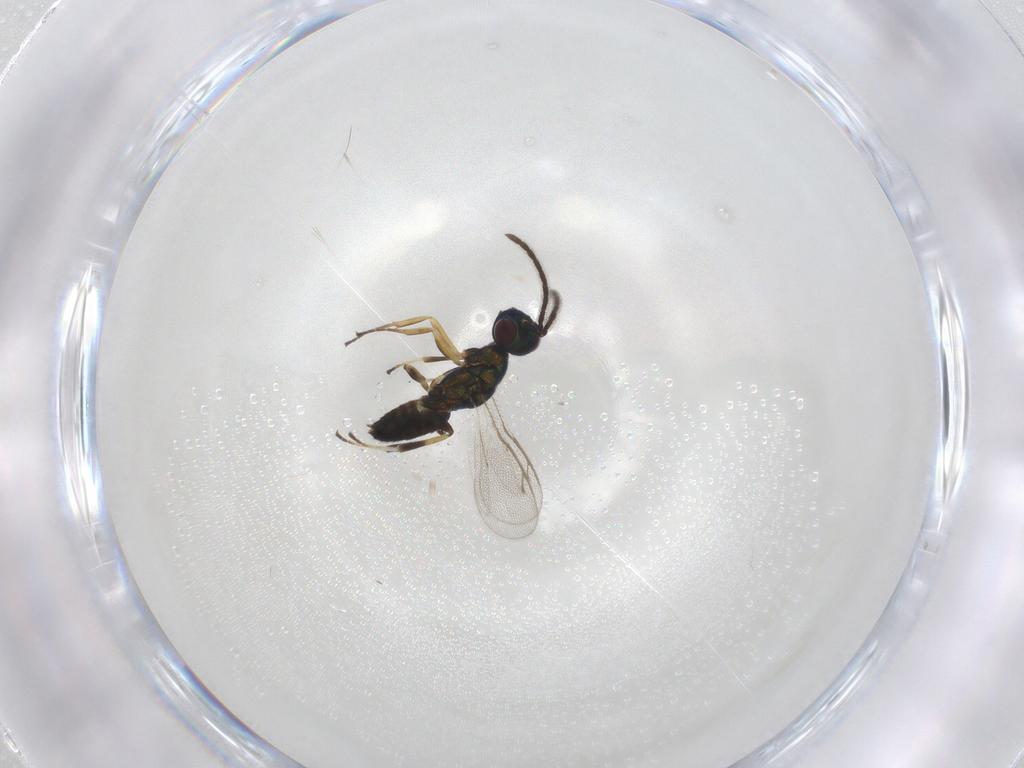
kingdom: Animalia
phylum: Arthropoda
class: Insecta
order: Hymenoptera
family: Eupelmidae
